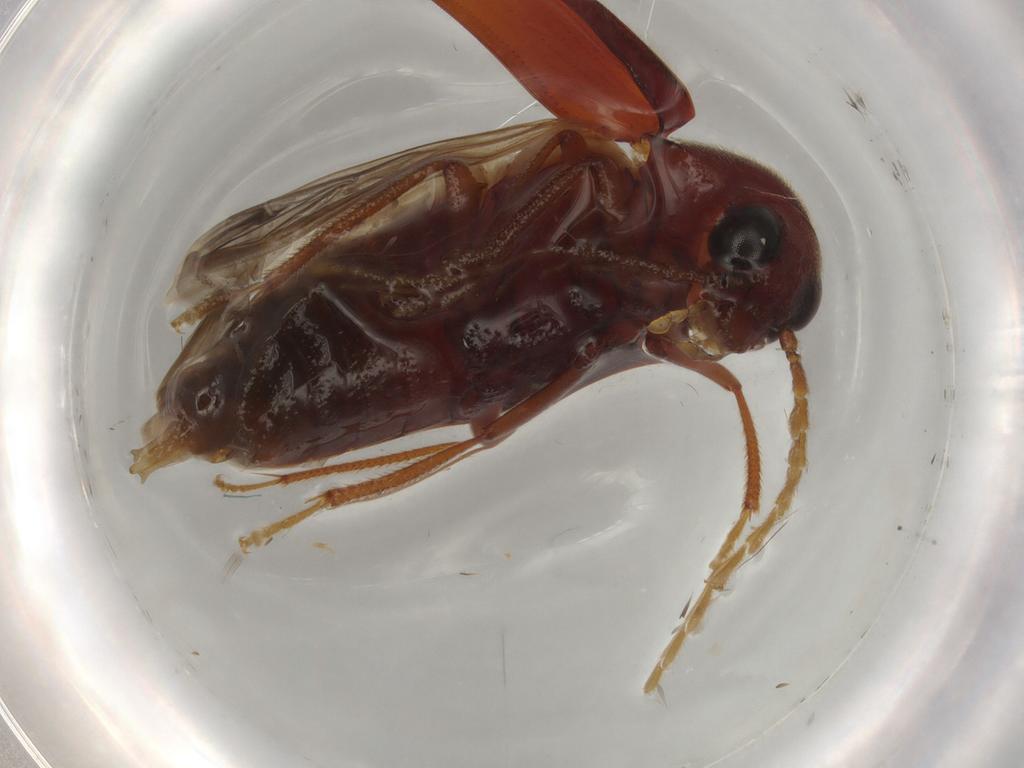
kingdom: Animalia
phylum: Arthropoda
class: Insecta
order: Coleoptera
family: Ptilodactylidae
